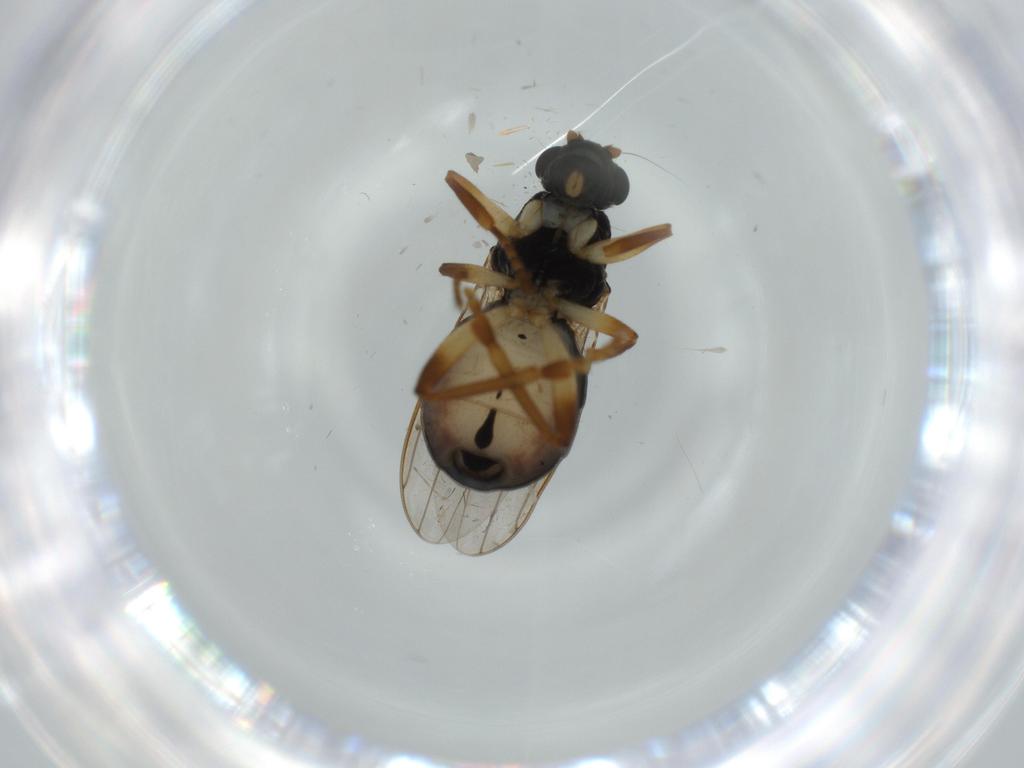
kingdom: Animalia
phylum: Arthropoda
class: Insecta
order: Diptera
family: Sphaeroceridae
